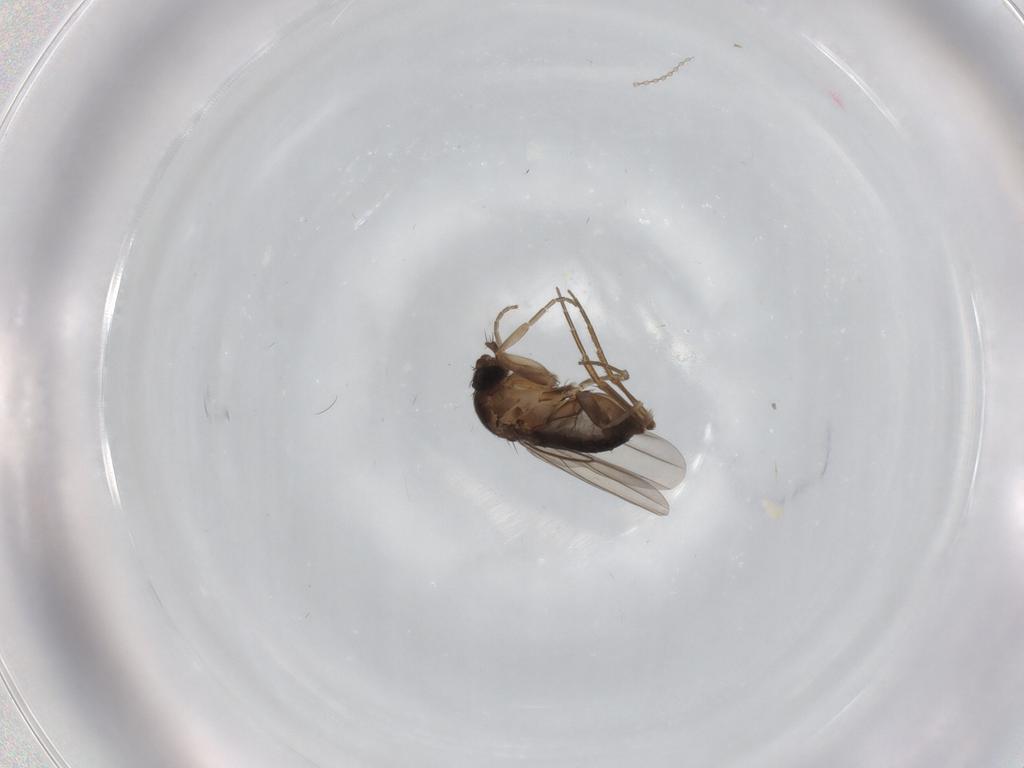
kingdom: Animalia
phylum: Arthropoda
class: Insecta
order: Diptera
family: Phoridae
